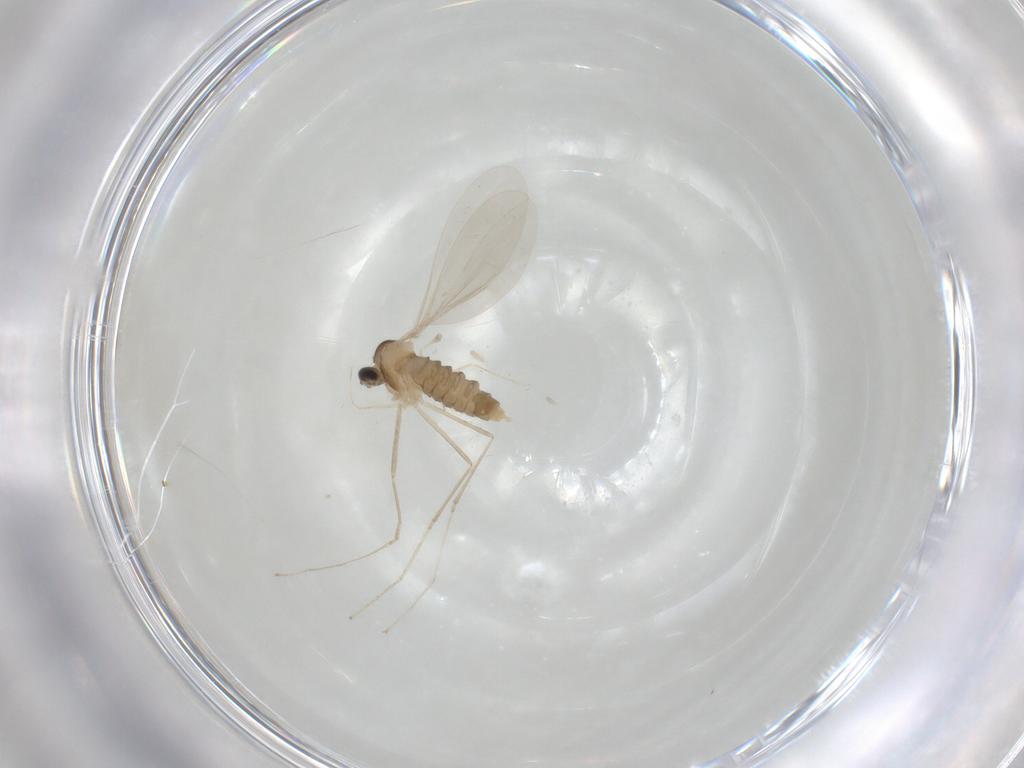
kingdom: Animalia
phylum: Arthropoda
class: Insecta
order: Diptera
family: Cecidomyiidae
